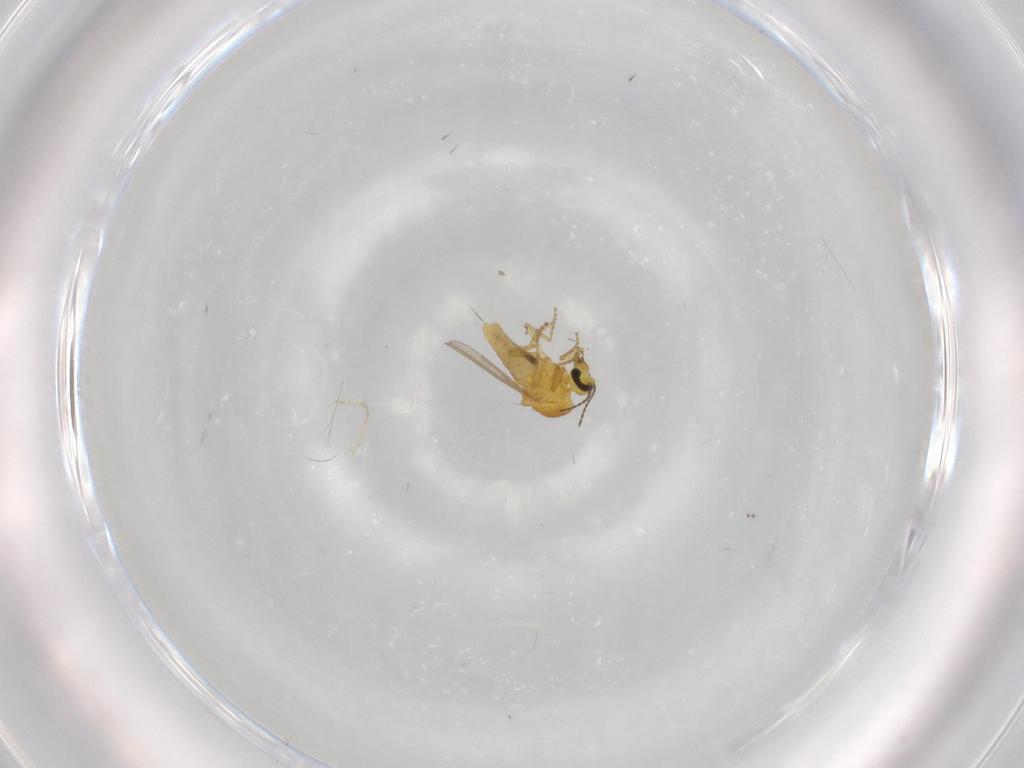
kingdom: Animalia
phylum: Arthropoda
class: Insecta
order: Diptera
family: Ceratopogonidae
